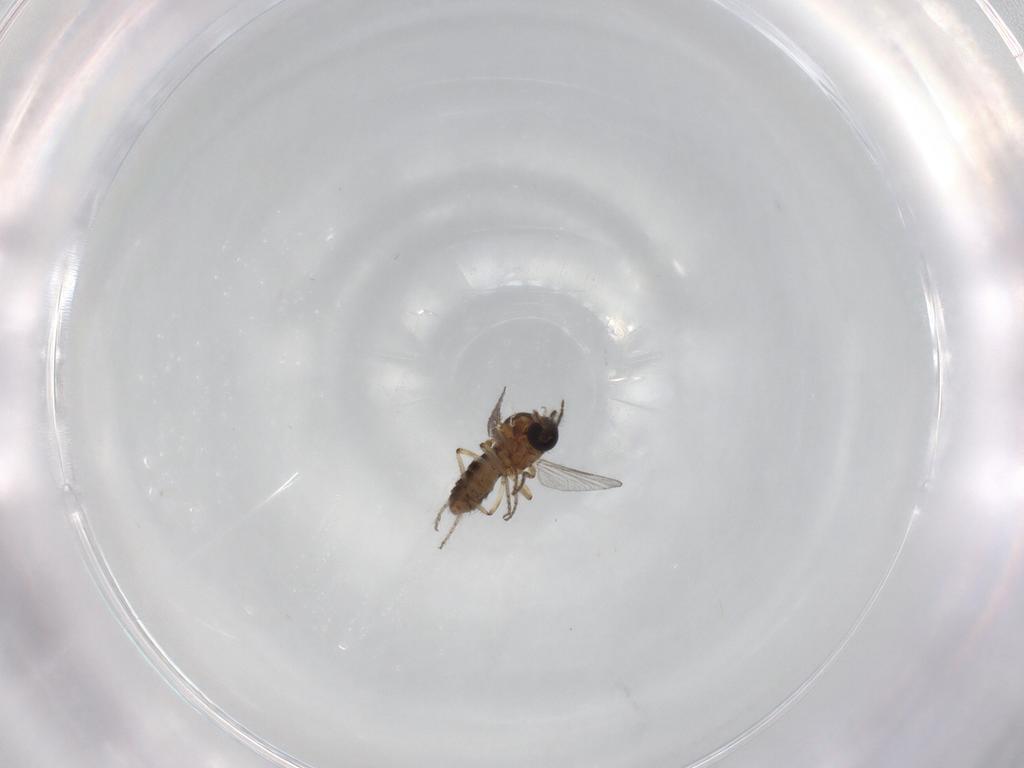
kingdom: Animalia
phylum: Arthropoda
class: Insecta
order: Diptera
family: Ceratopogonidae
